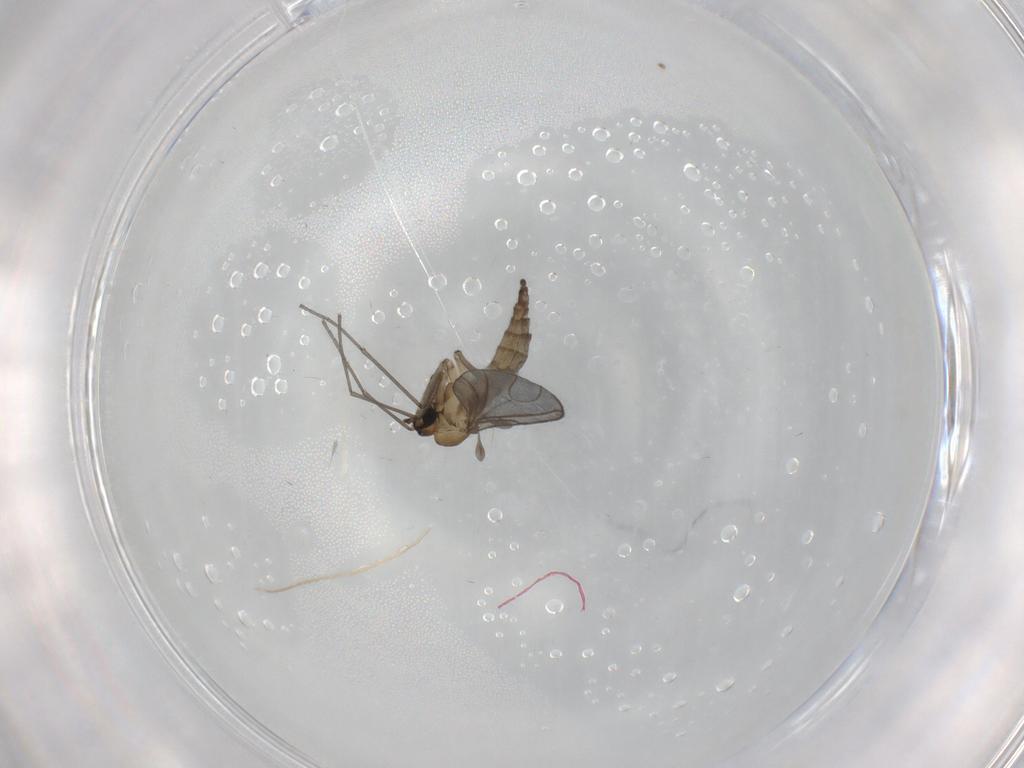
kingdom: Animalia
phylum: Arthropoda
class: Insecta
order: Diptera
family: Sciaridae
